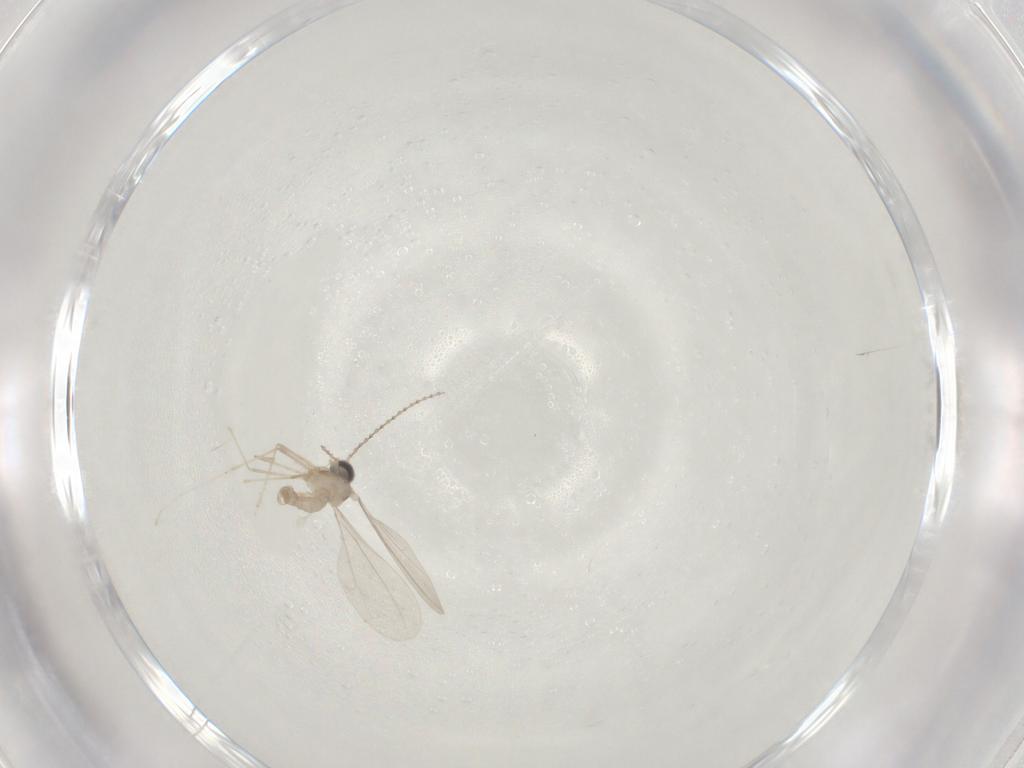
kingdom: Animalia
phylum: Arthropoda
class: Insecta
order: Diptera
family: Cecidomyiidae
